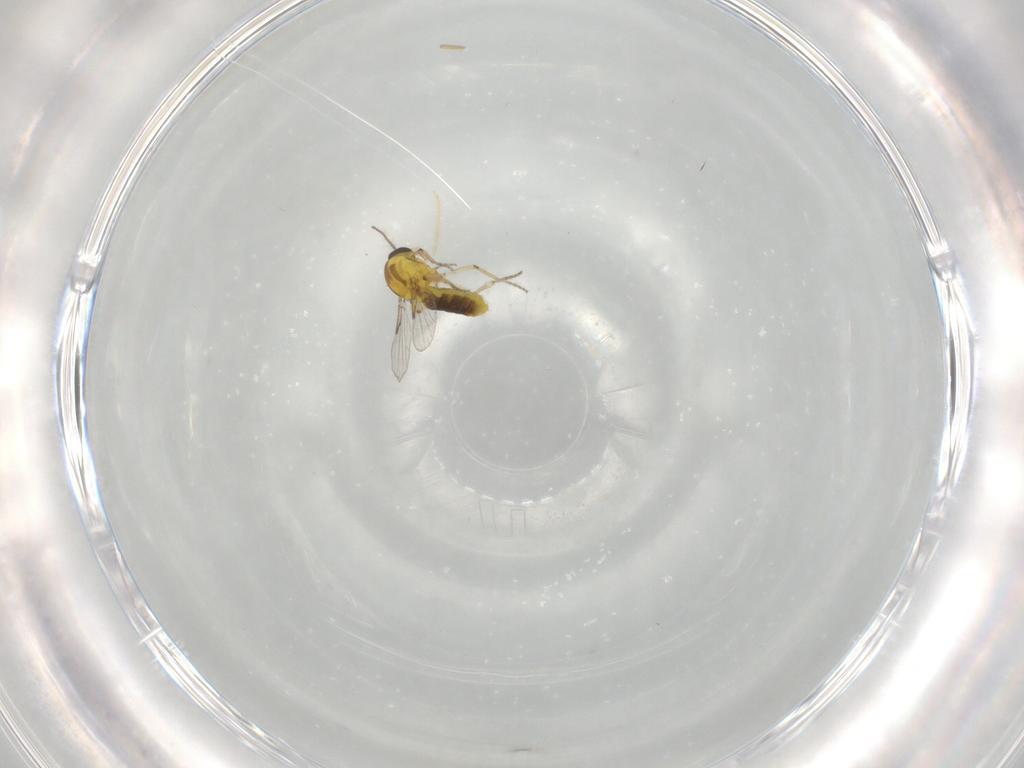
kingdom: Animalia
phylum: Arthropoda
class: Insecta
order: Diptera
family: Ceratopogonidae
